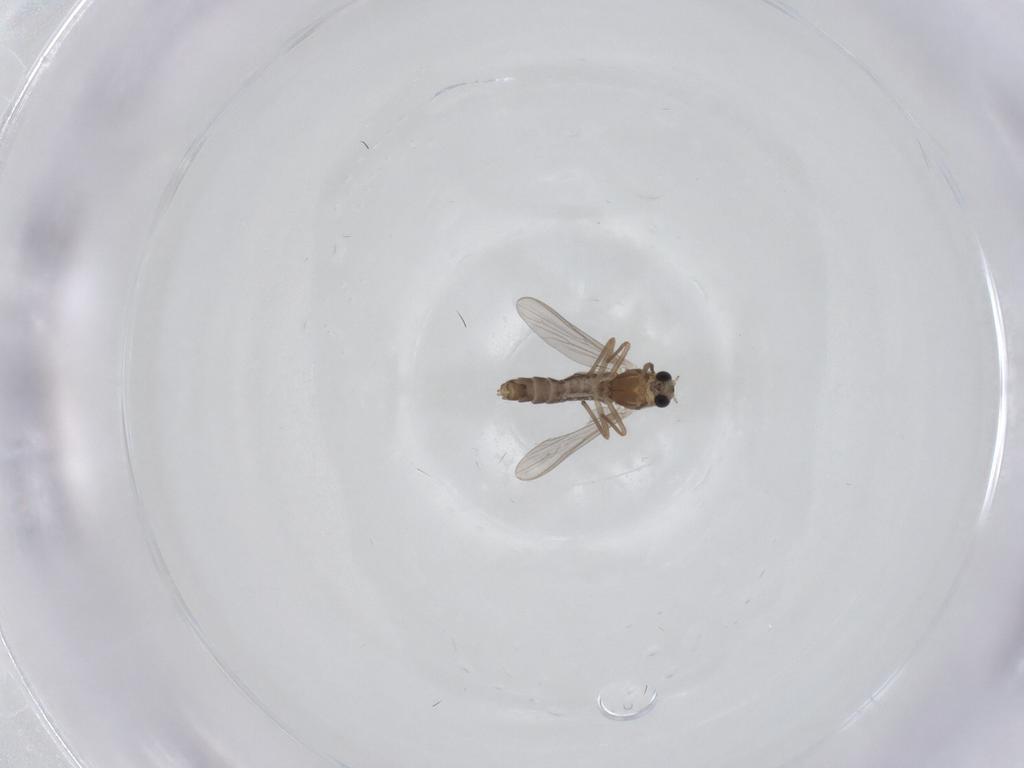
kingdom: Animalia
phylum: Arthropoda
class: Insecta
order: Diptera
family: Chironomidae
